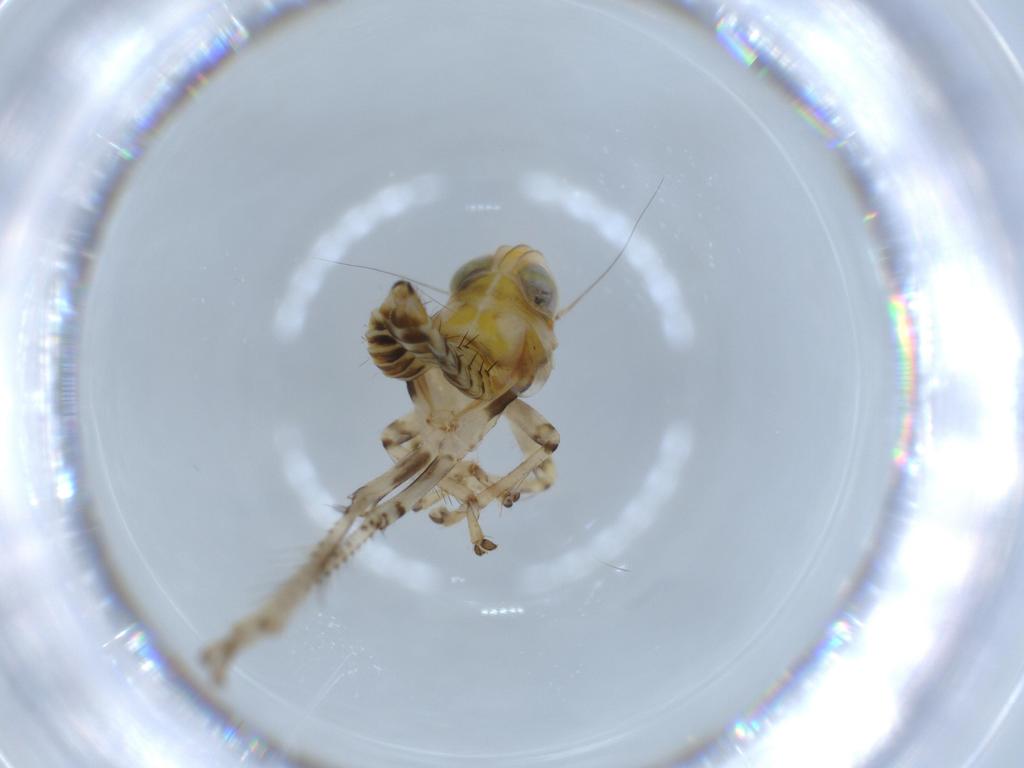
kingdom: Animalia
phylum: Arthropoda
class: Insecta
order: Hemiptera
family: Cicadellidae
